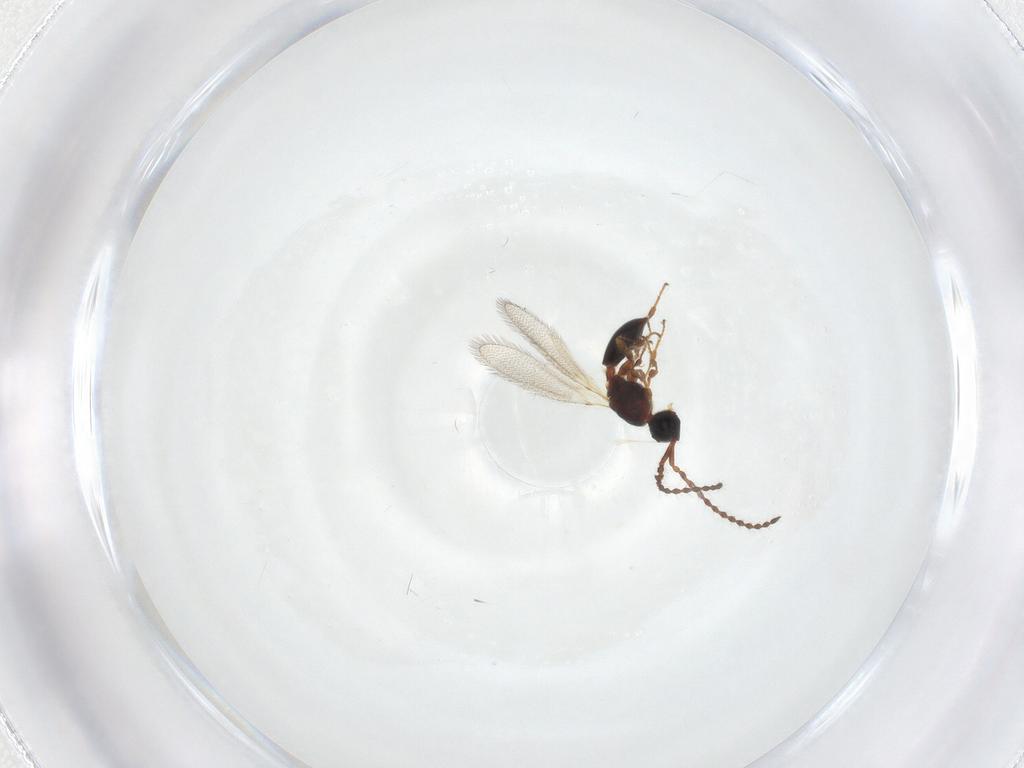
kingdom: Animalia
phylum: Arthropoda
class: Insecta
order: Hymenoptera
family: Diapriidae
